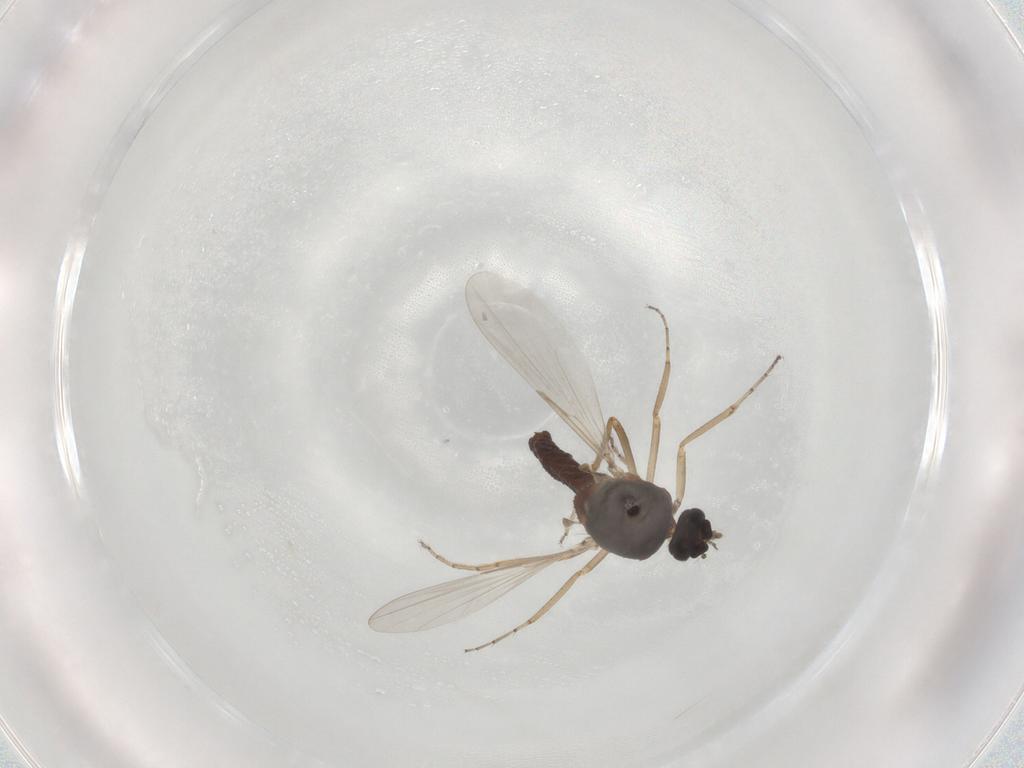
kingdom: Animalia
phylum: Arthropoda
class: Insecta
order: Diptera
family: Ceratopogonidae
